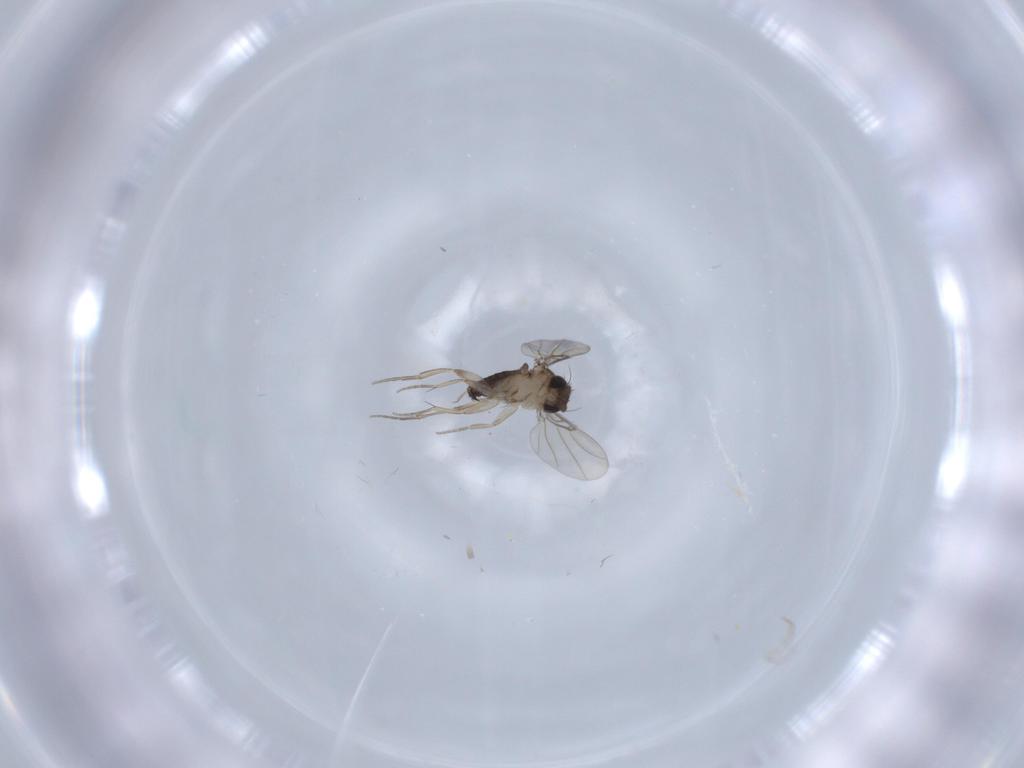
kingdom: Animalia
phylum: Arthropoda
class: Insecta
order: Diptera
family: Phoridae
